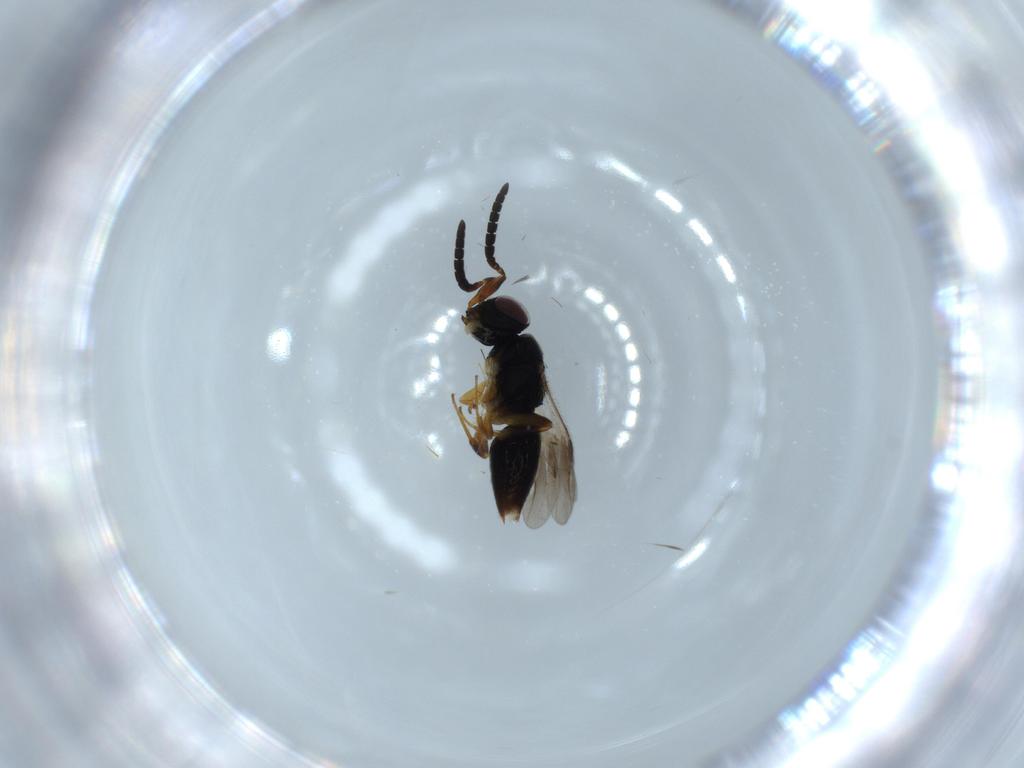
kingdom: Animalia
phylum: Arthropoda
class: Insecta
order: Hymenoptera
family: Megaspilidae
